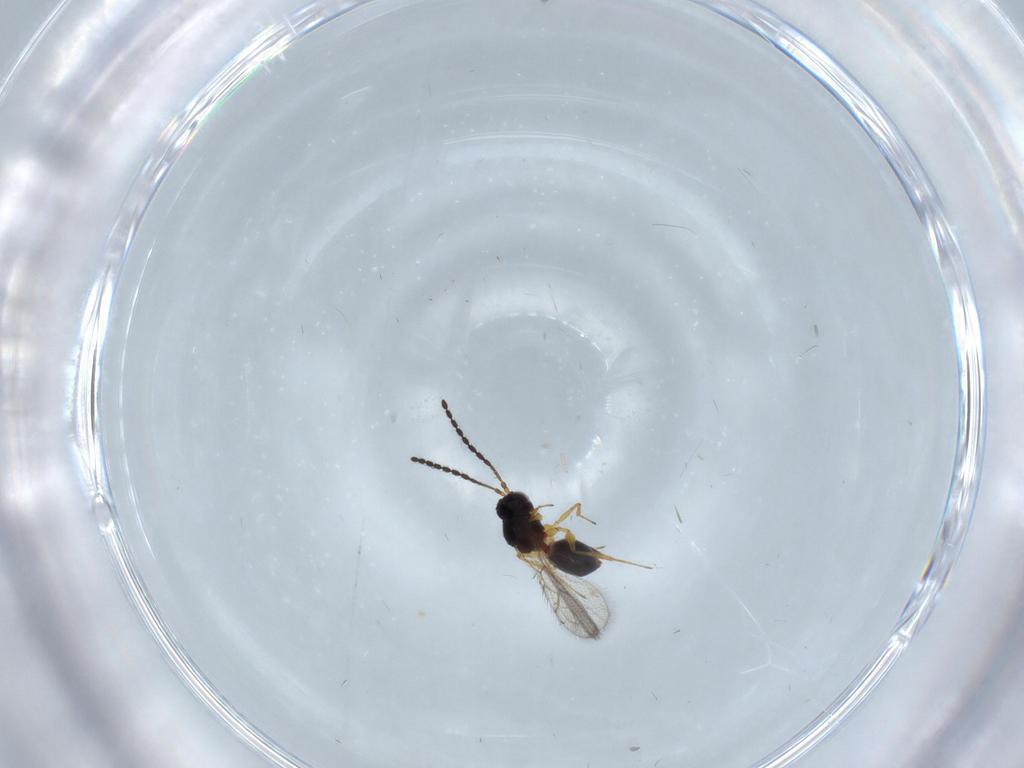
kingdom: Animalia
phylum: Arthropoda
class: Insecta
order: Hymenoptera
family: Figitidae
